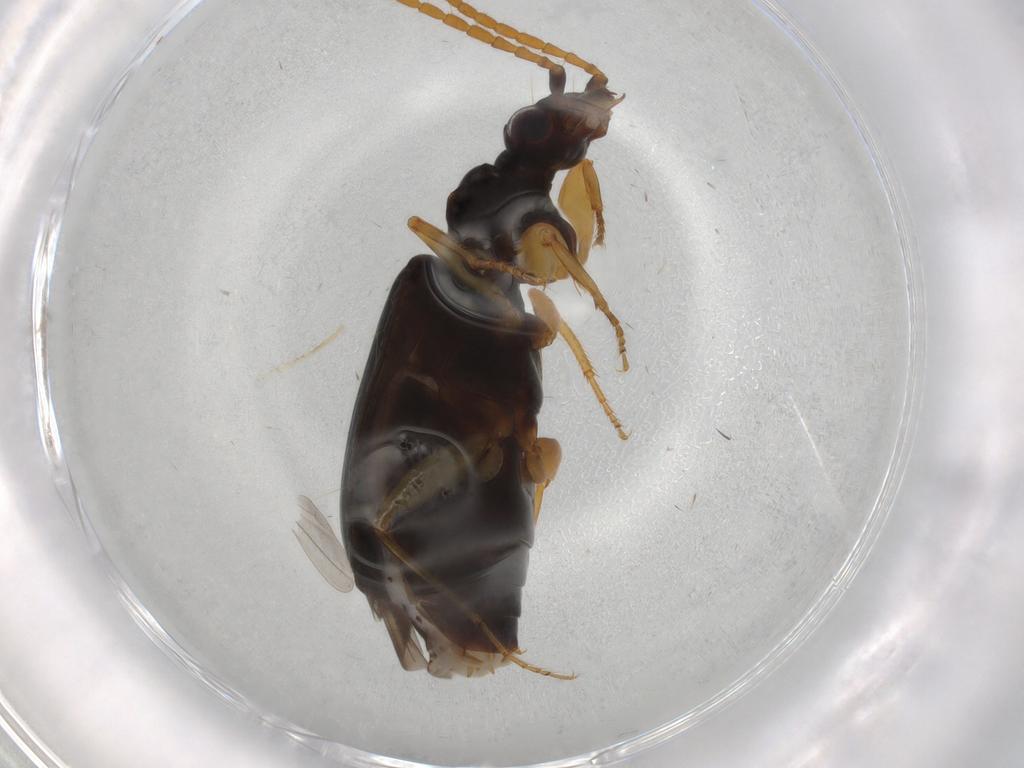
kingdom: Animalia
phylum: Arthropoda
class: Insecta
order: Coleoptera
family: Carabidae
